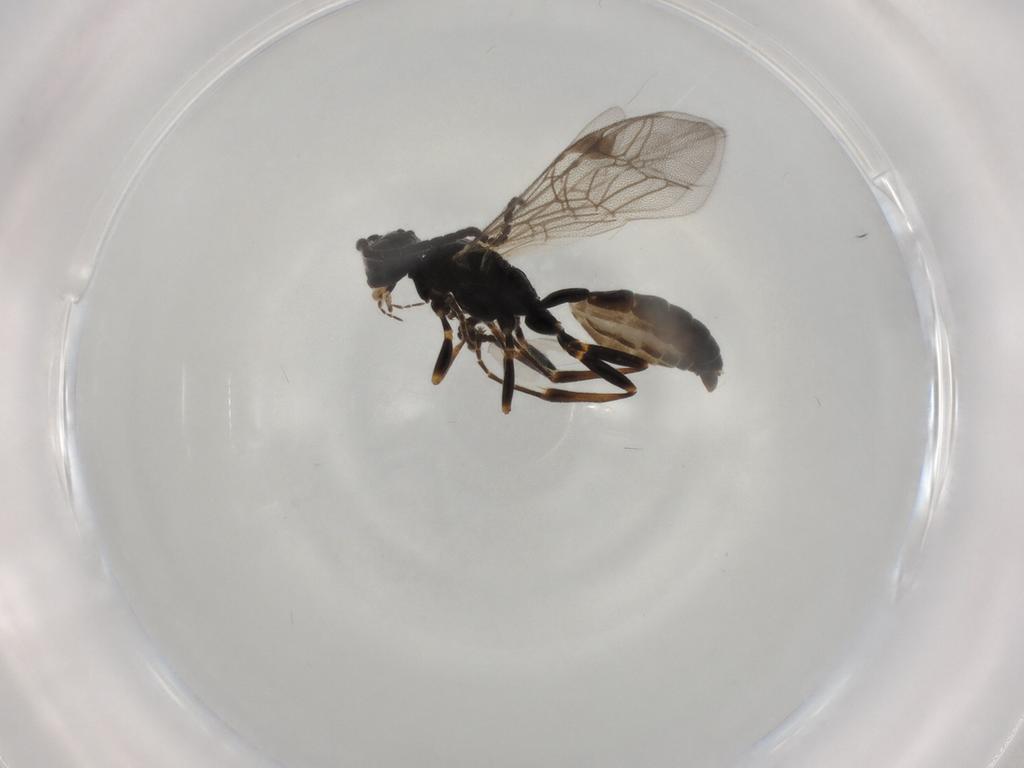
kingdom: Animalia
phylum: Arthropoda
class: Insecta
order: Hymenoptera
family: Ichneumonidae
